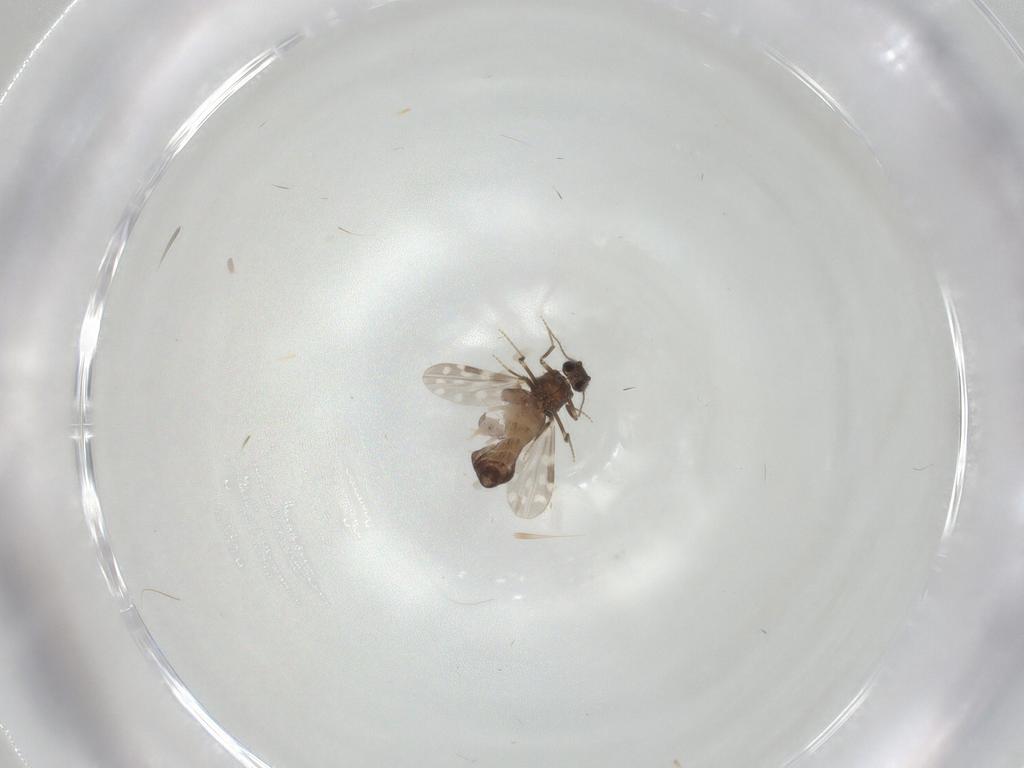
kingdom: Animalia
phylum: Arthropoda
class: Insecta
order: Diptera
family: Sciaridae
